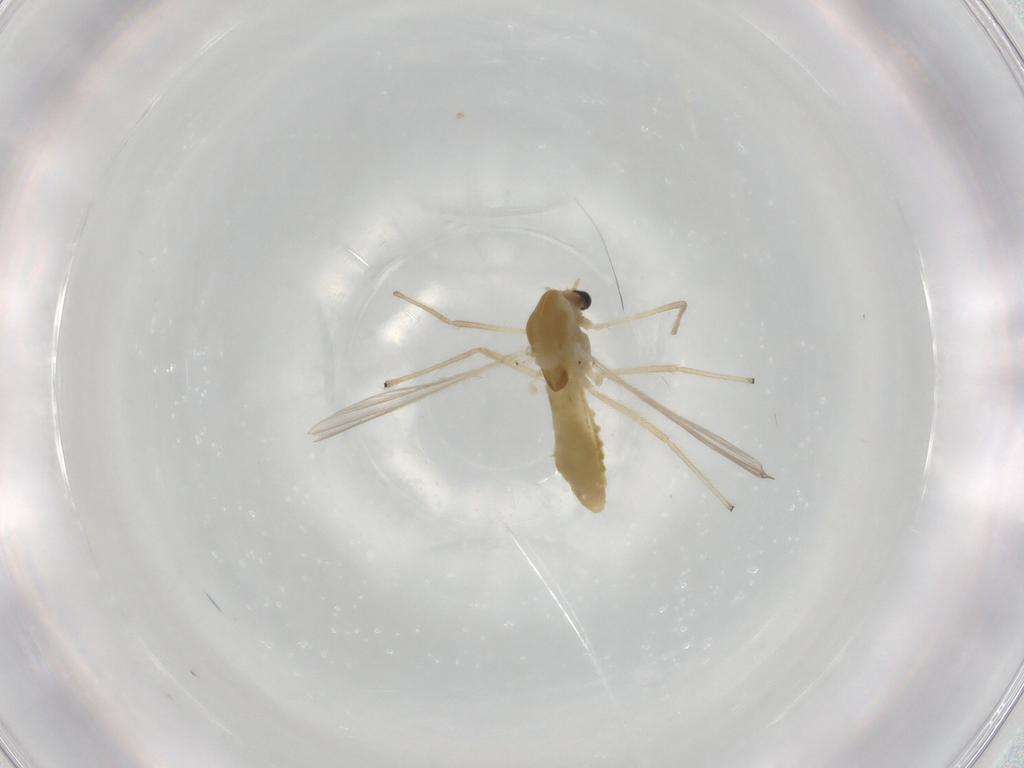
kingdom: Animalia
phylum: Arthropoda
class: Insecta
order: Diptera
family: Chironomidae
